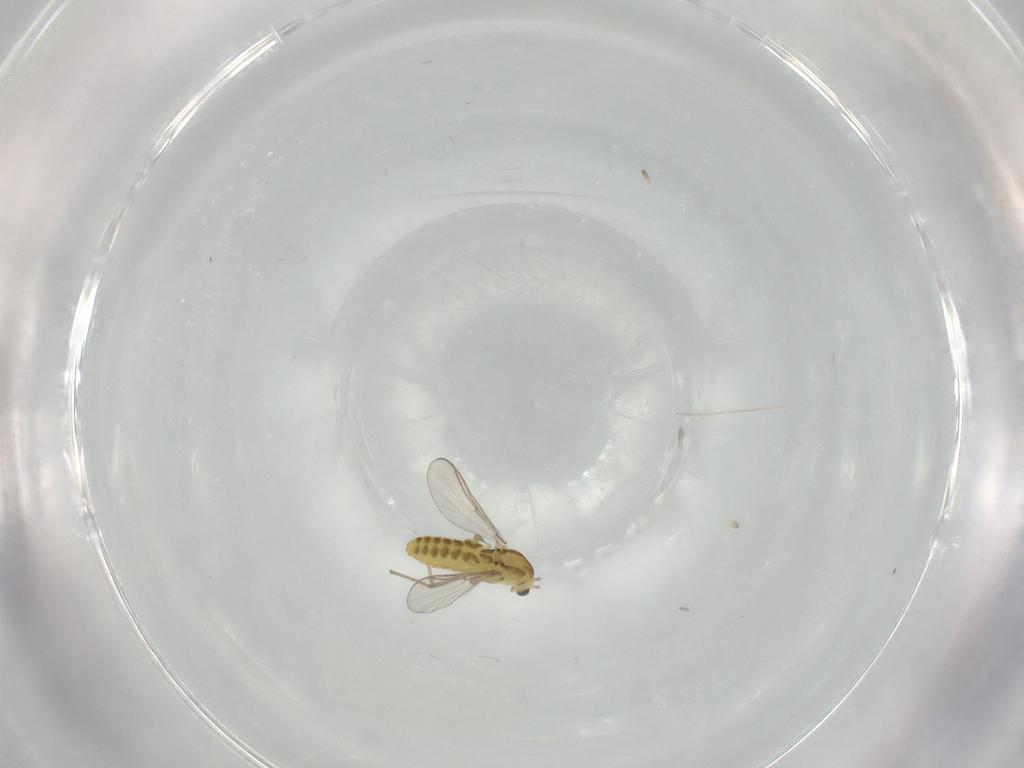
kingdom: Animalia
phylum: Arthropoda
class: Insecta
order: Diptera
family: Chironomidae
